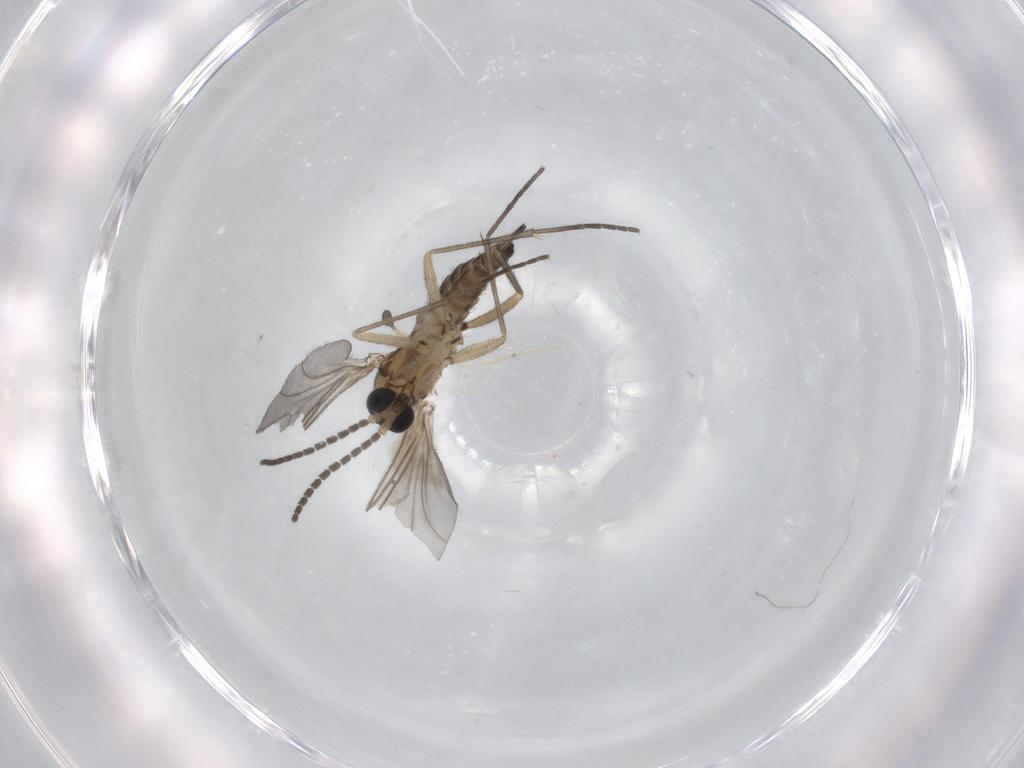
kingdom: Animalia
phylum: Arthropoda
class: Insecta
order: Diptera
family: Sciaridae
